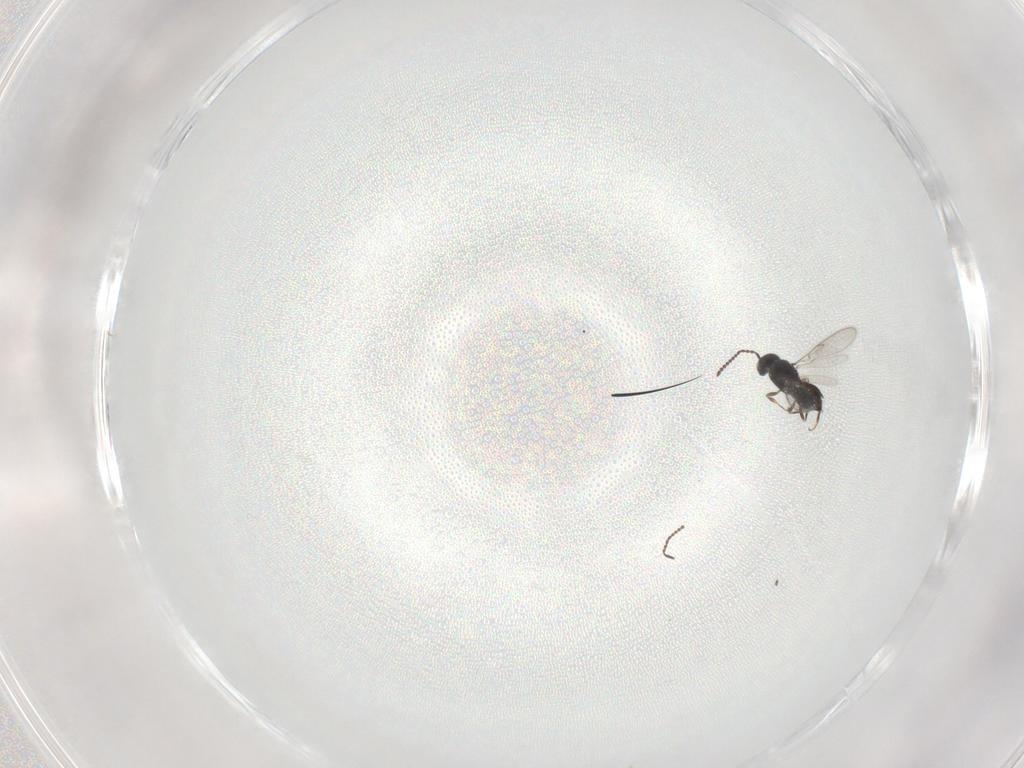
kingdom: Animalia
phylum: Arthropoda
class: Insecta
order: Hymenoptera
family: Scelionidae
